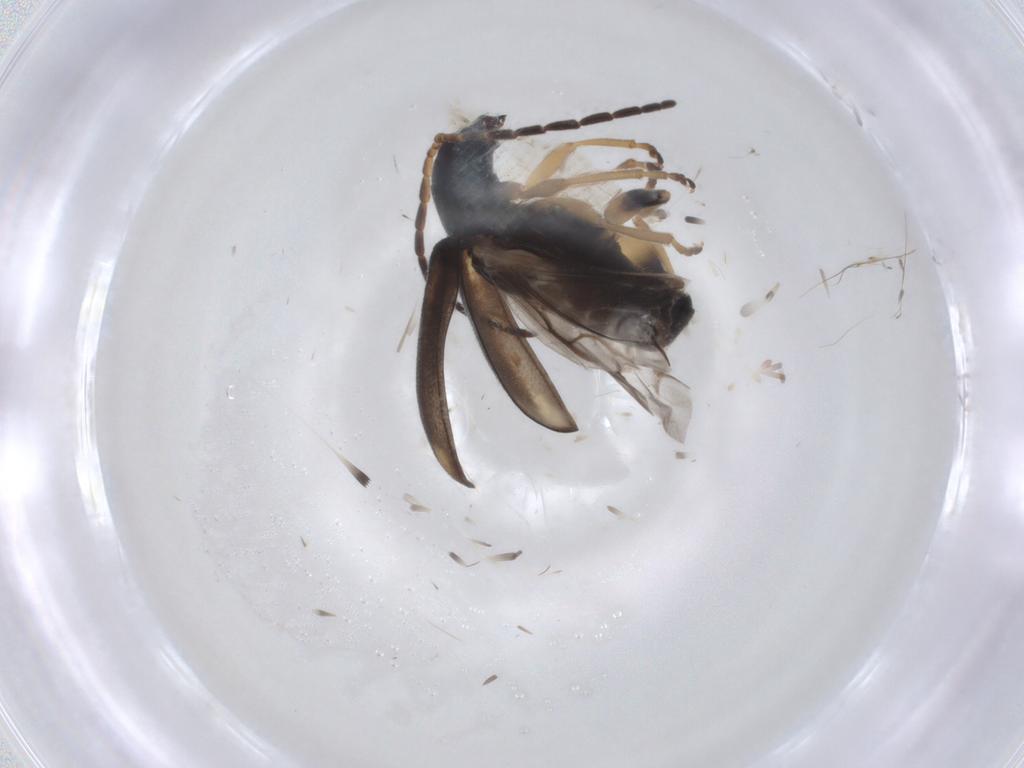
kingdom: Animalia
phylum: Arthropoda
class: Insecta
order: Coleoptera
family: Chrysomelidae
